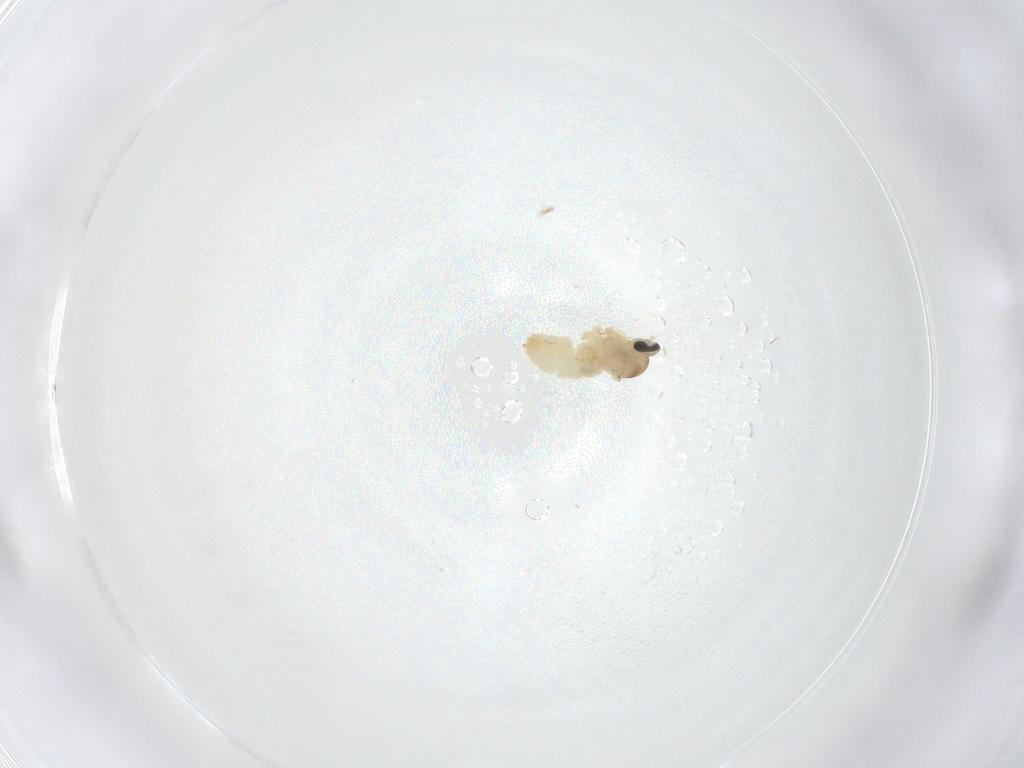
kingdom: Animalia
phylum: Arthropoda
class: Insecta
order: Diptera
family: Cecidomyiidae
